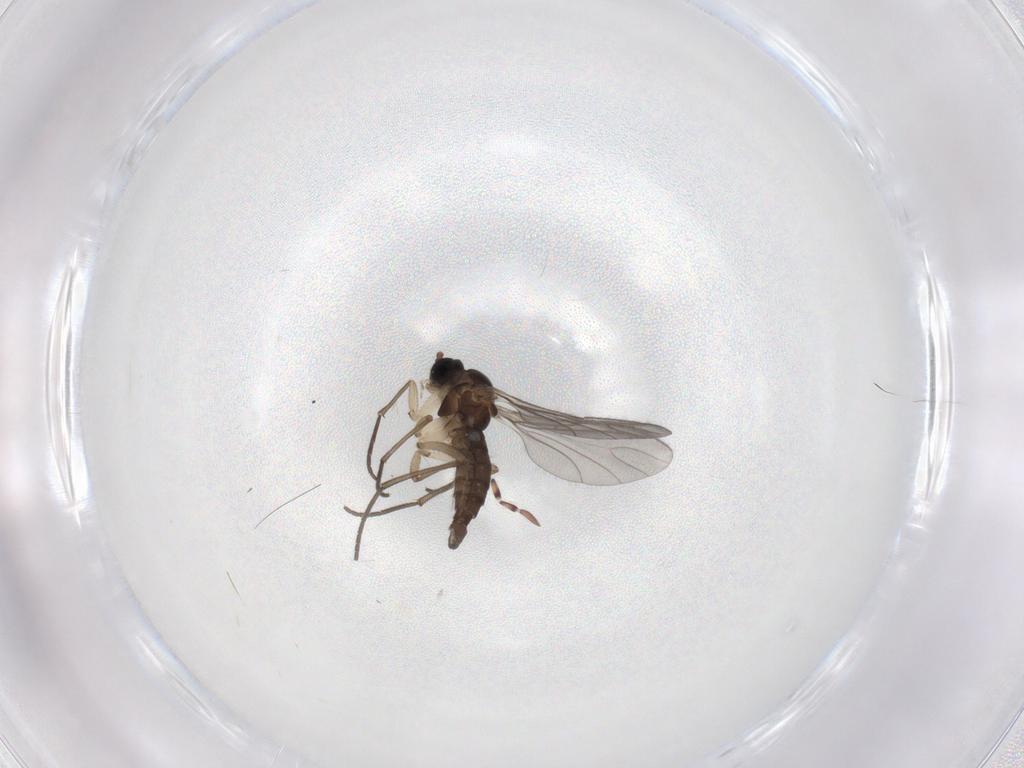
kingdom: Animalia
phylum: Arthropoda
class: Insecta
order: Diptera
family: Sciaridae
